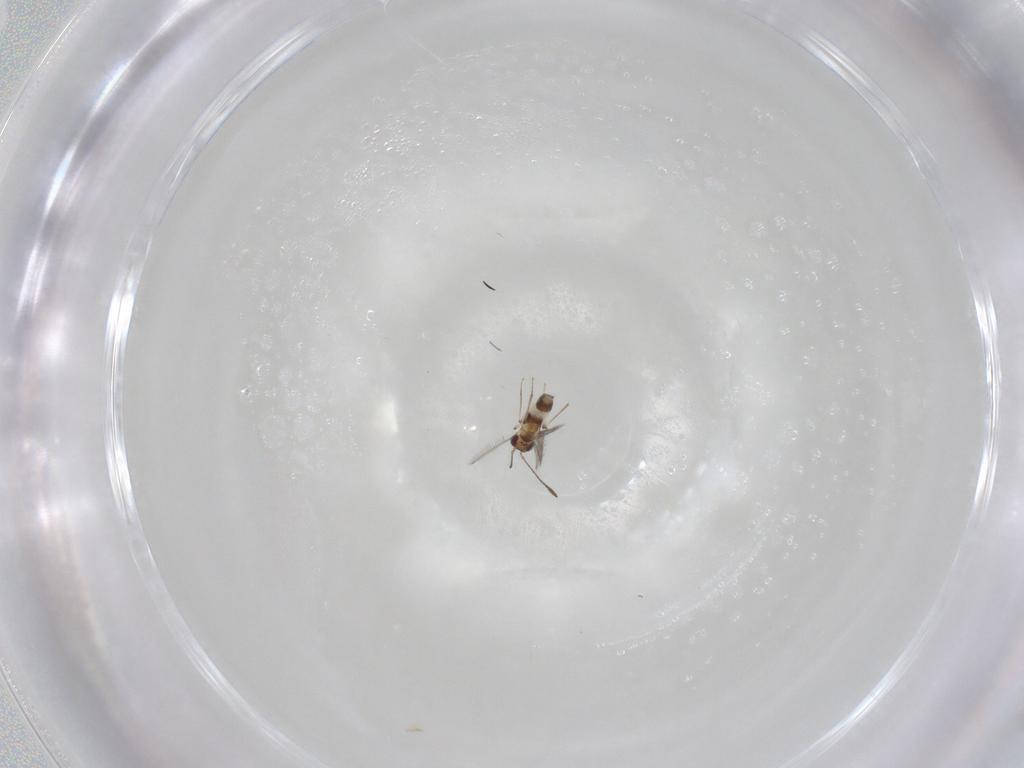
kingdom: Animalia
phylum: Arthropoda
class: Insecta
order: Hymenoptera
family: Mymaridae
